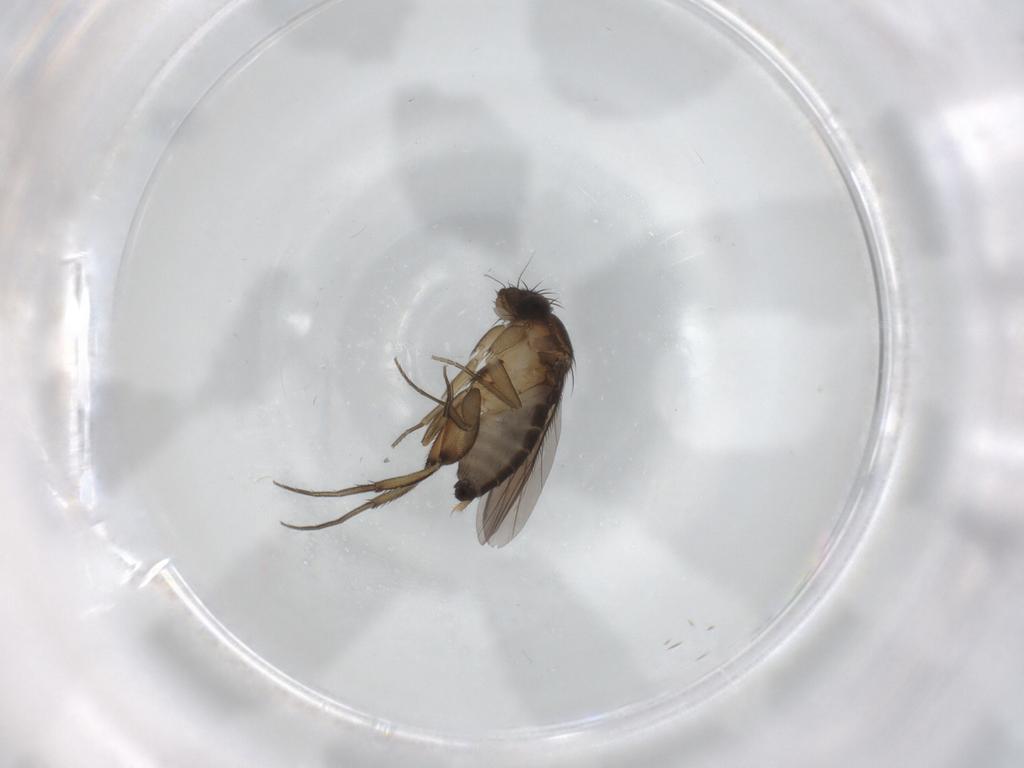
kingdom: Animalia
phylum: Arthropoda
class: Insecta
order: Diptera
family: Phoridae
